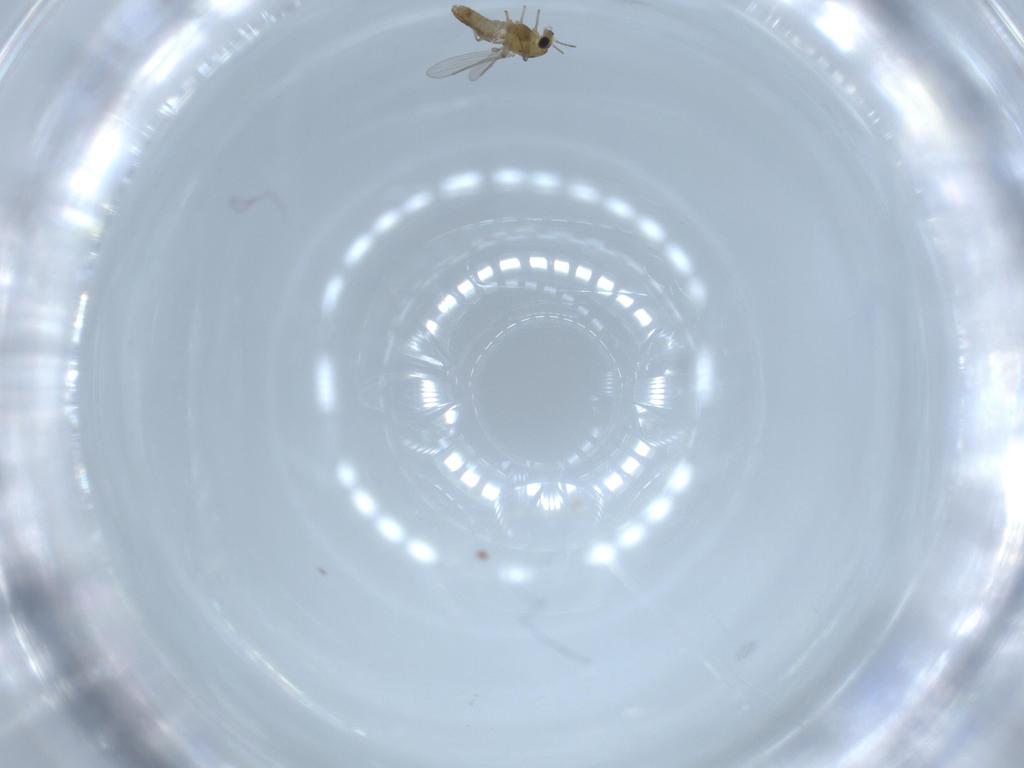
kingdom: Animalia
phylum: Arthropoda
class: Insecta
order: Diptera
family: Chironomidae
